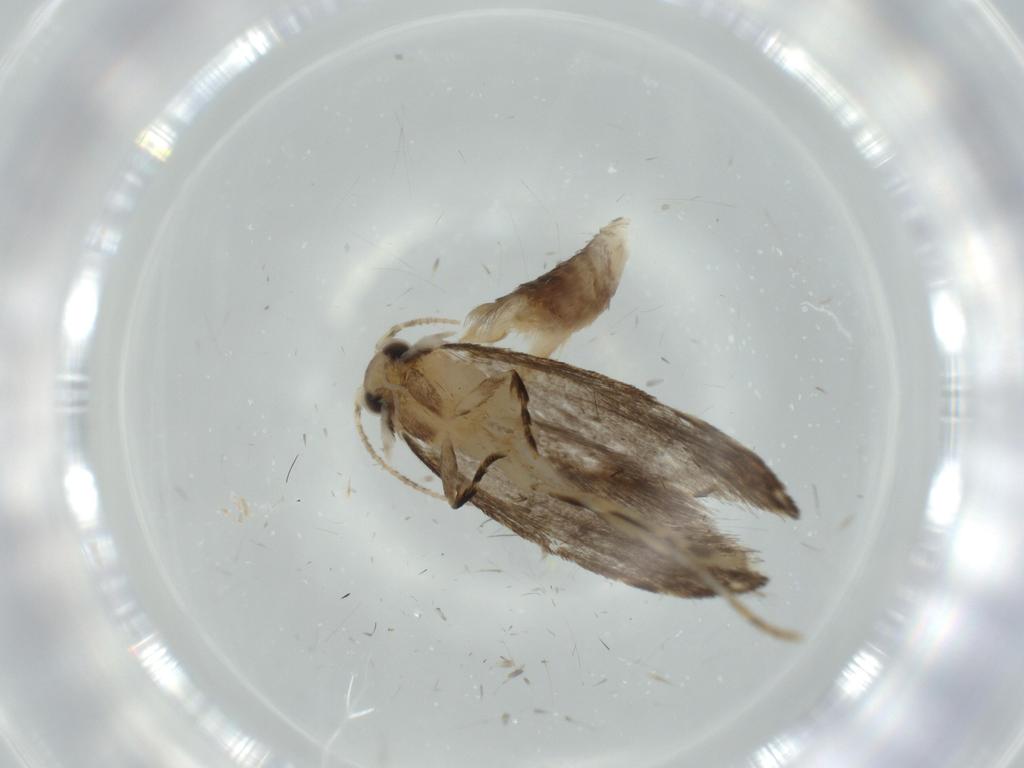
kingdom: Animalia
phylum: Arthropoda
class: Insecta
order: Lepidoptera
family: Tineidae
